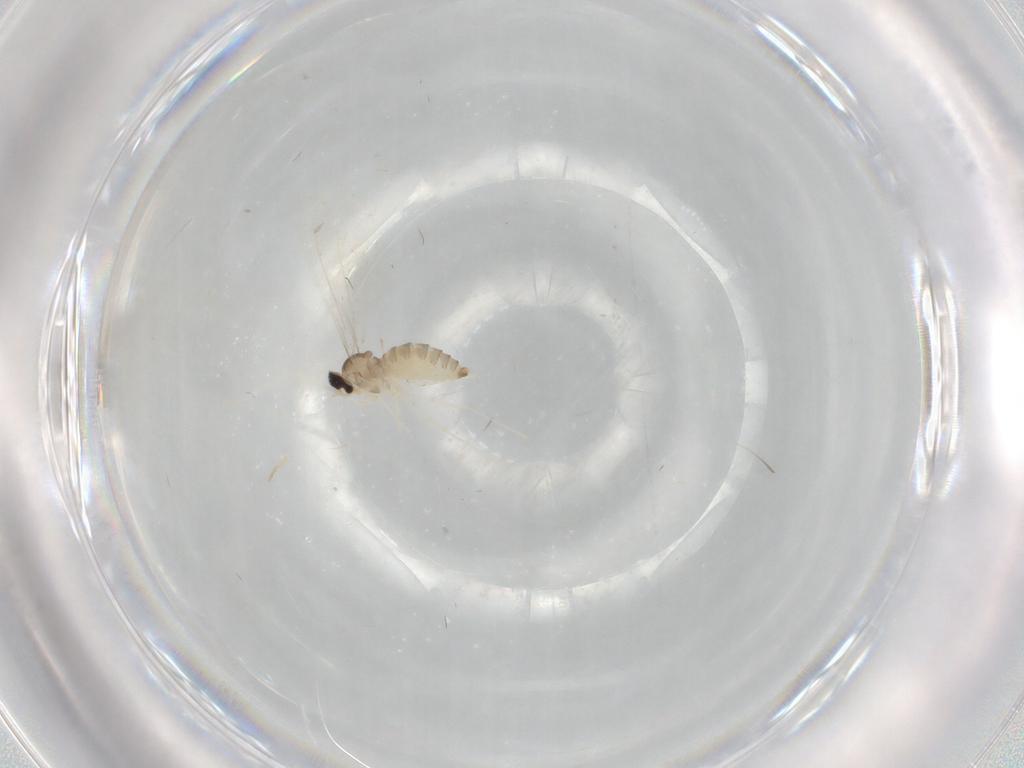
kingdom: Animalia
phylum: Arthropoda
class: Insecta
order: Diptera
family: Cecidomyiidae
